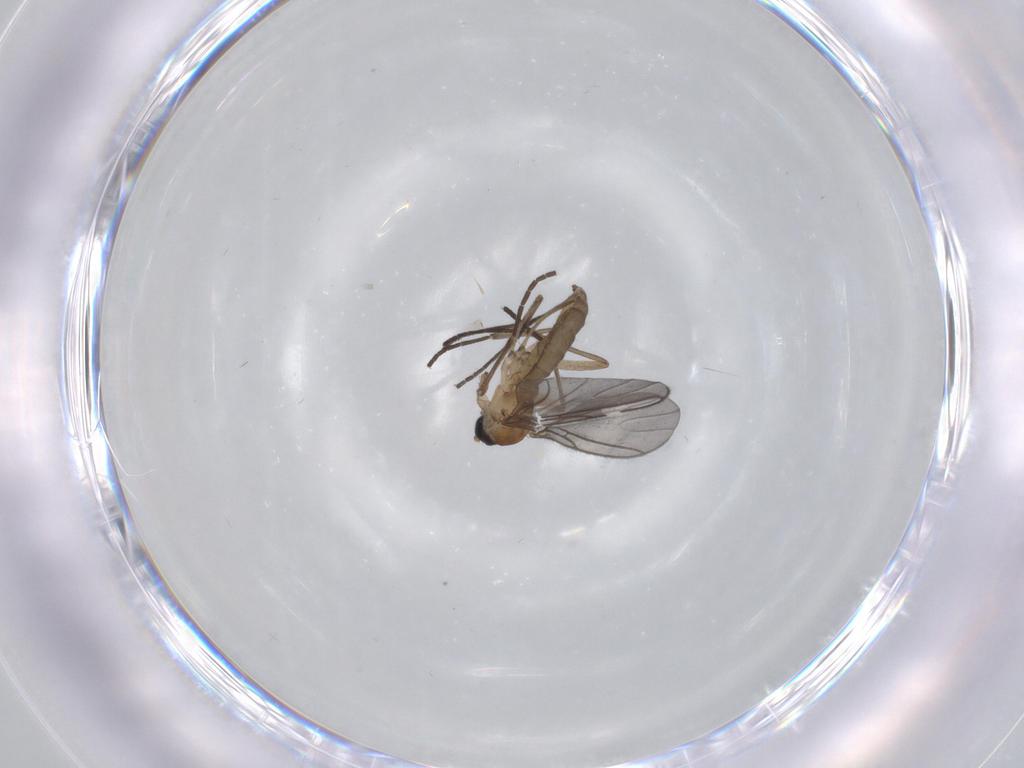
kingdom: Animalia
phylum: Arthropoda
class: Insecta
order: Diptera
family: Sciaridae
